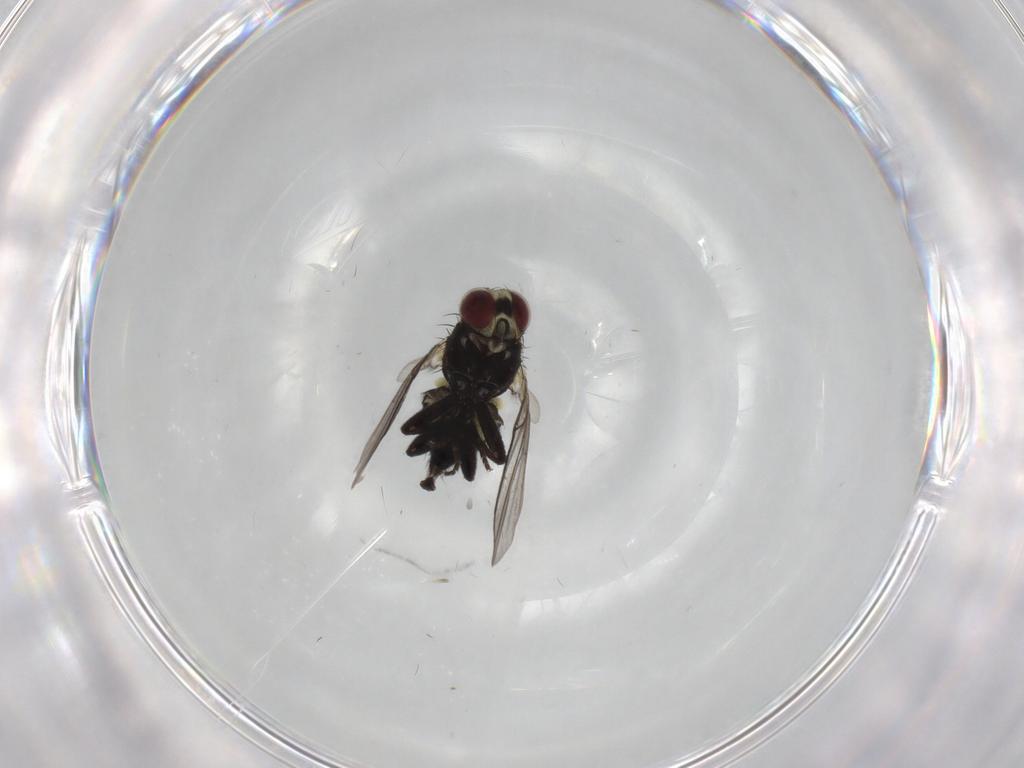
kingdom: Animalia
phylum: Arthropoda
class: Insecta
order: Diptera
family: Agromyzidae
